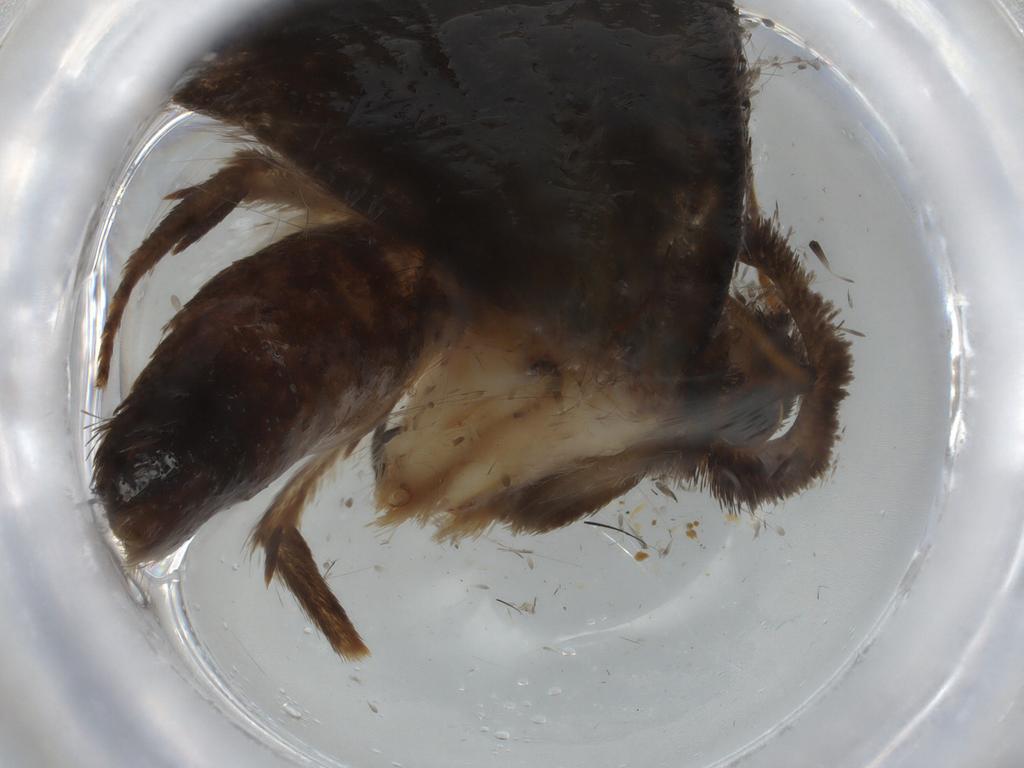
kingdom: Animalia
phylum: Arthropoda
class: Insecta
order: Lepidoptera
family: Tineidae
